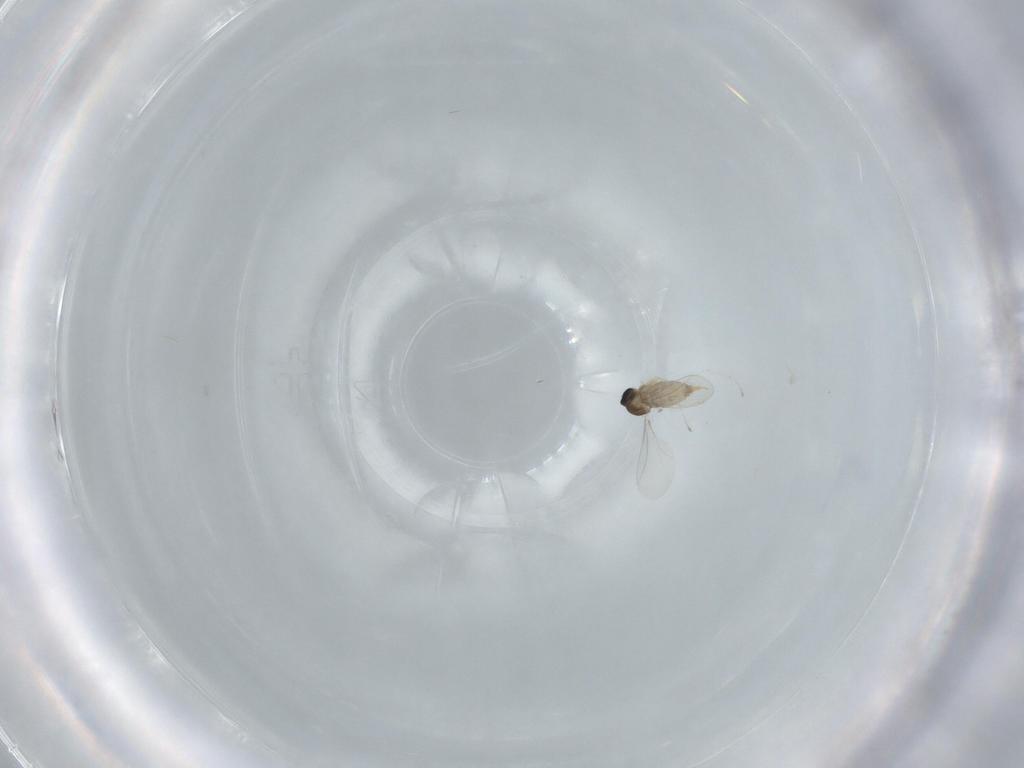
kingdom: Animalia
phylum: Arthropoda
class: Insecta
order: Diptera
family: Cecidomyiidae
